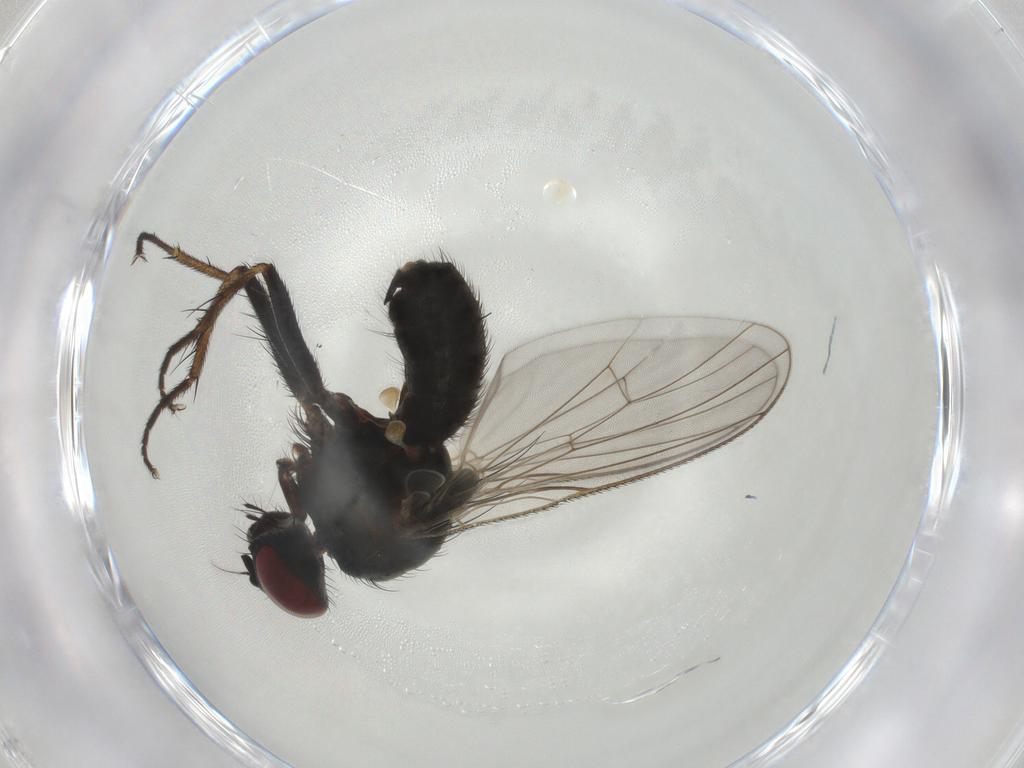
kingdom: Animalia
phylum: Arthropoda
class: Insecta
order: Diptera
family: Muscidae
